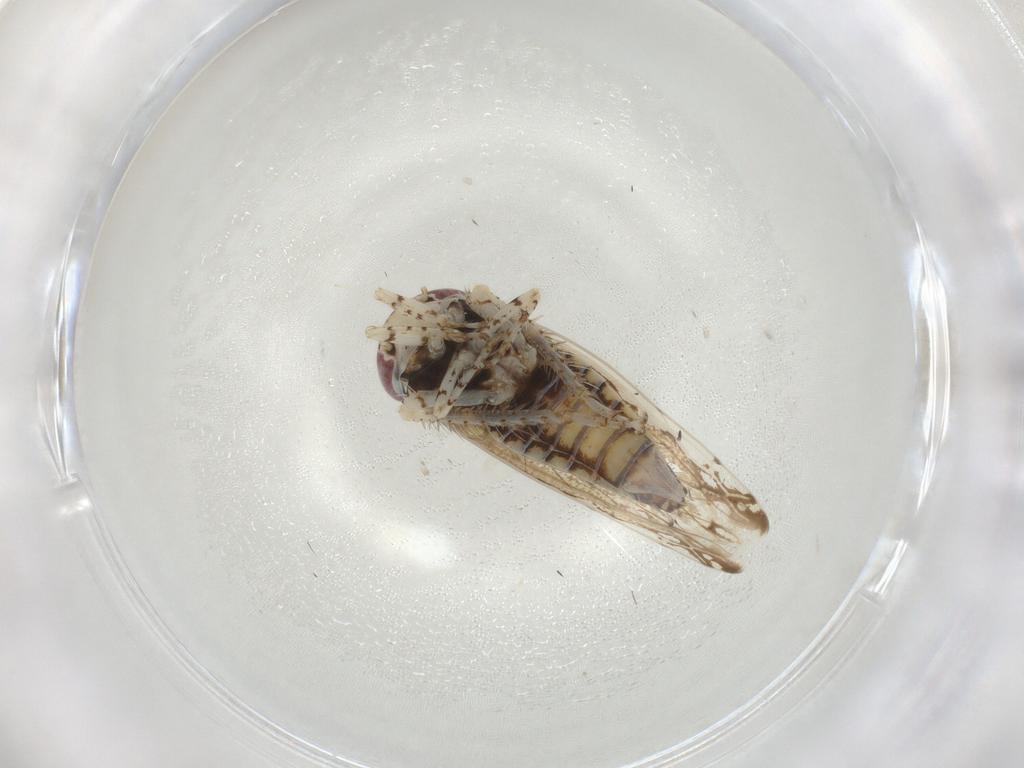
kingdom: Animalia
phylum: Arthropoda
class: Insecta
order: Hemiptera
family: Cicadellidae
